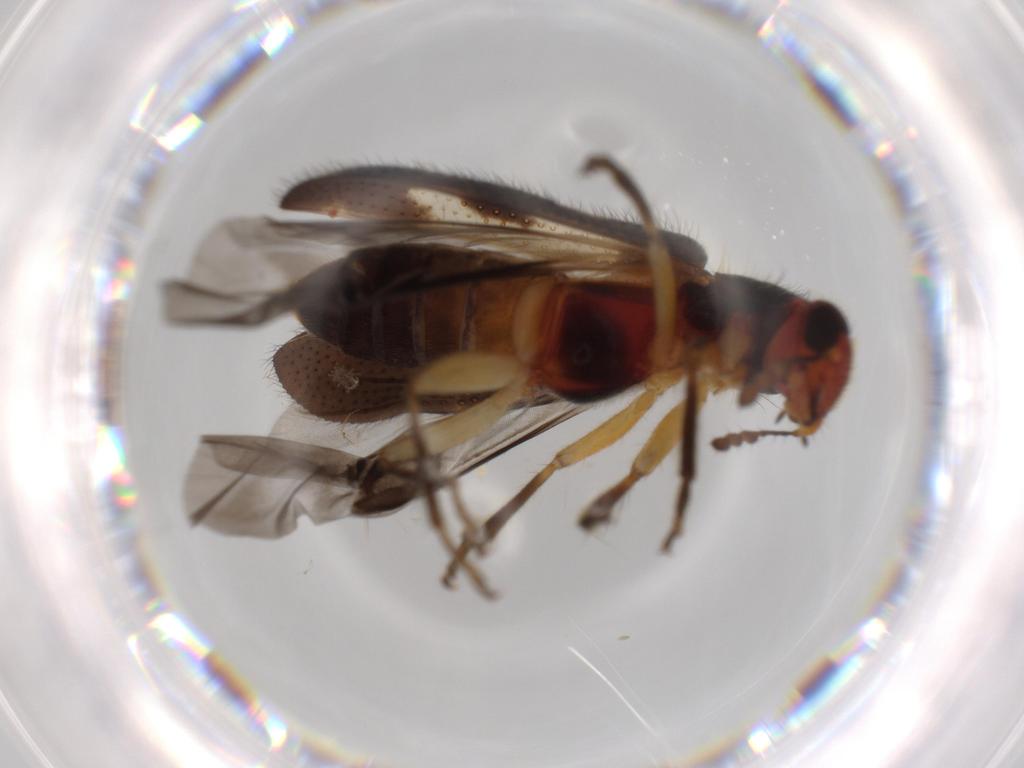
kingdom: Animalia
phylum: Arthropoda
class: Insecta
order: Coleoptera
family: Cleridae
